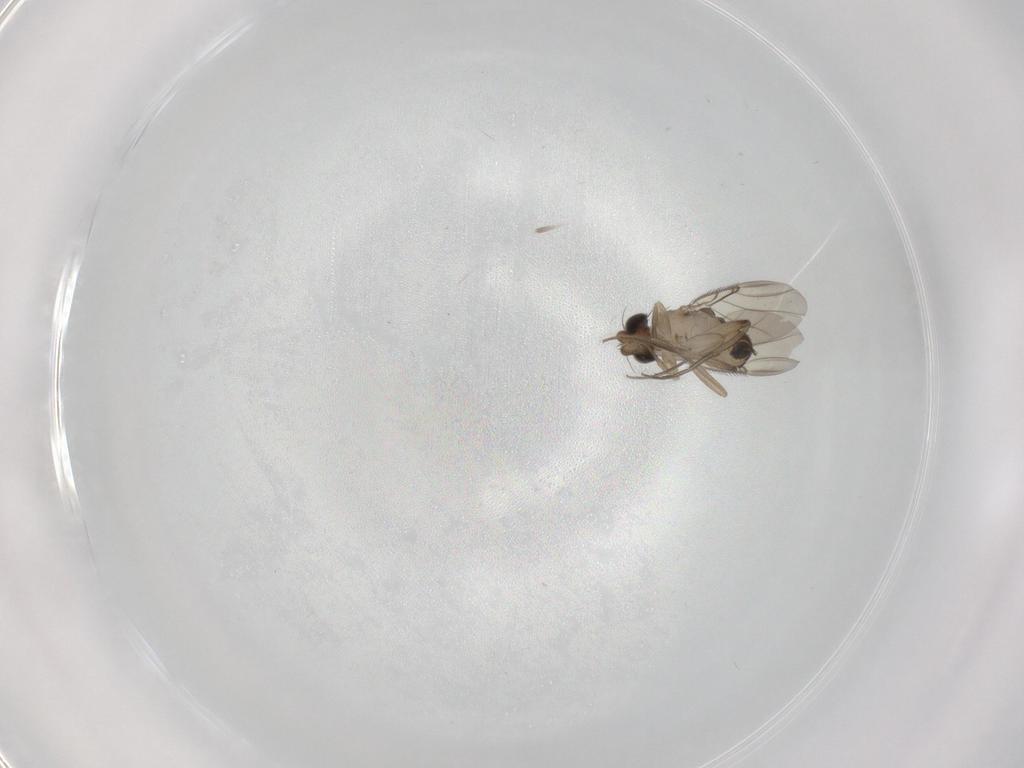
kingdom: Animalia
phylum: Arthropoda
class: Insecta
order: Diptera
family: Phoridae
